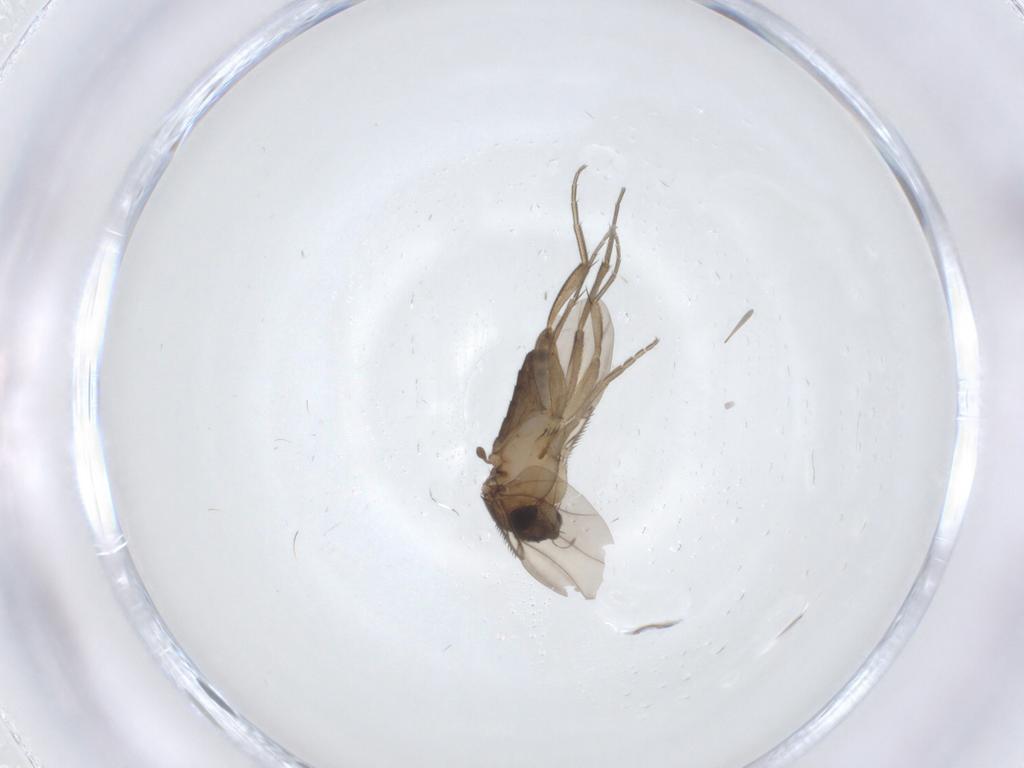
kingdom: Animalia
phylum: Arthropoda
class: Insecta
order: Diptera
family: Phoridae
